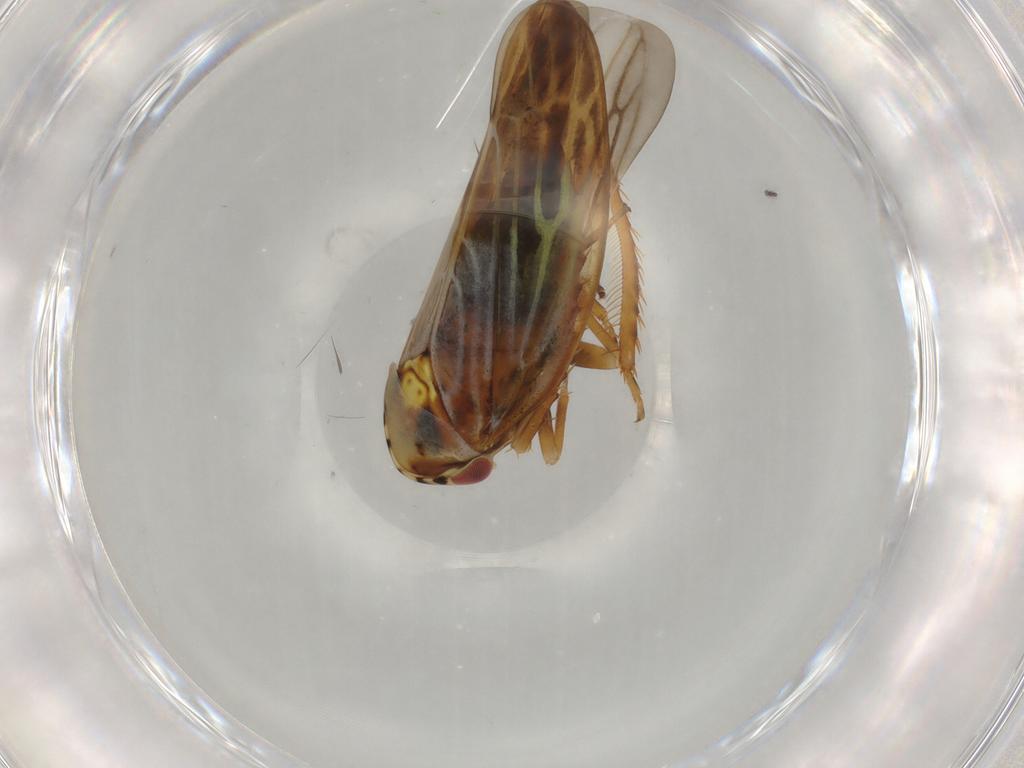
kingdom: Animalia
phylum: Arthropoda
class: Insecta
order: Hemiptera
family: Cicadellidae
